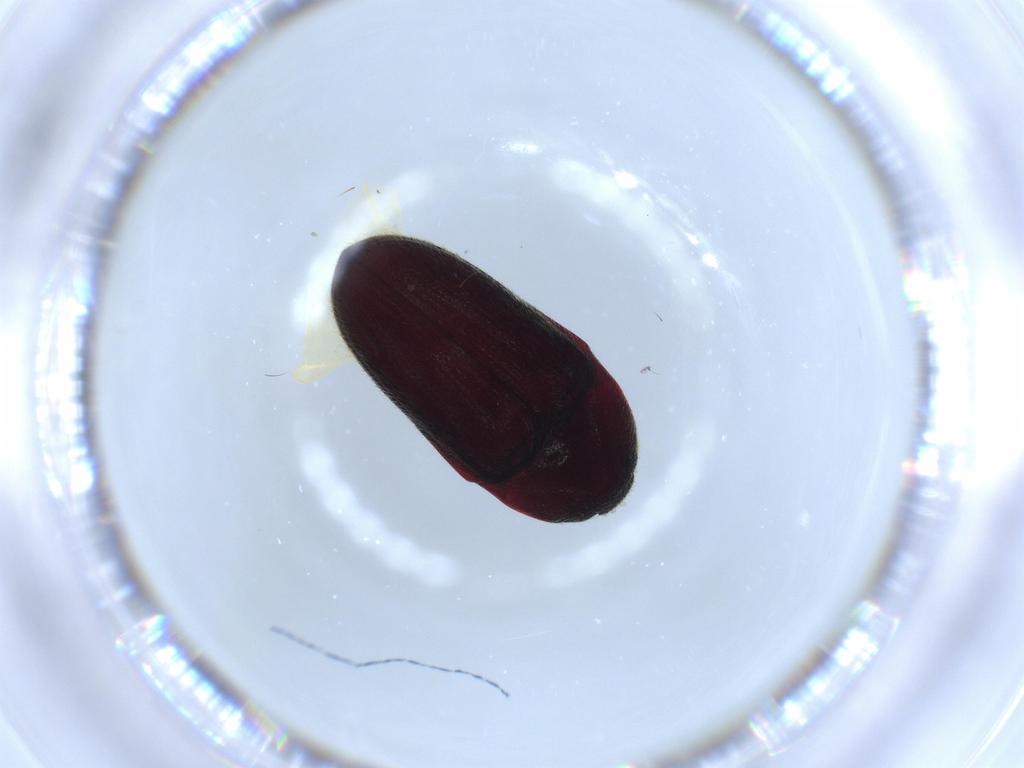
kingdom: Animalia
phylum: Arthropoda
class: Insecta
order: Coleoptera
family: Throscidae
